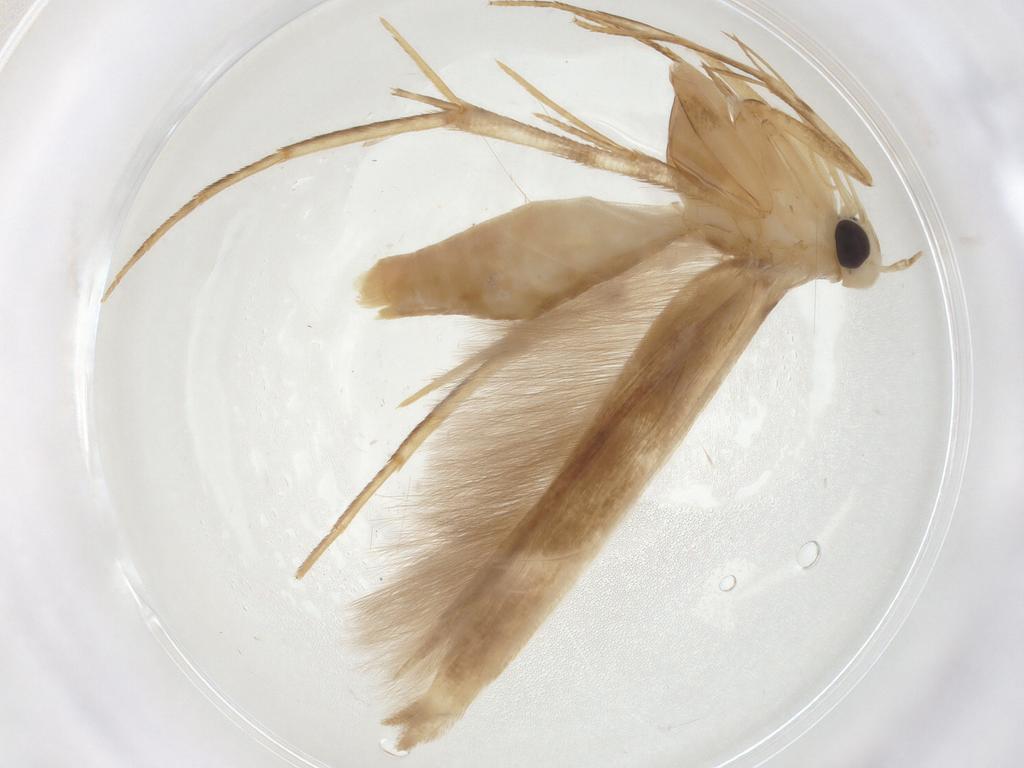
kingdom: Animalia
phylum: Arthropoda
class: Insecta
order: Lepidoptera
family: Gelechiidae
